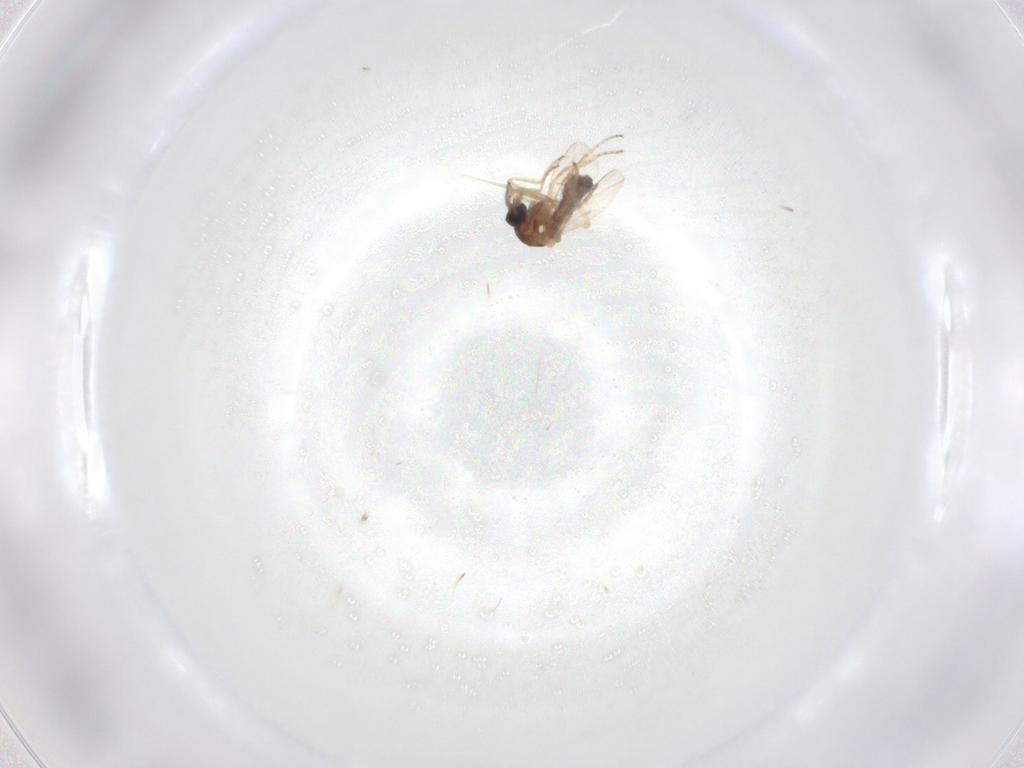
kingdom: Animalia
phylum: Arthropoda
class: Insecta
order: Diptera
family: Ceratopogonidae
